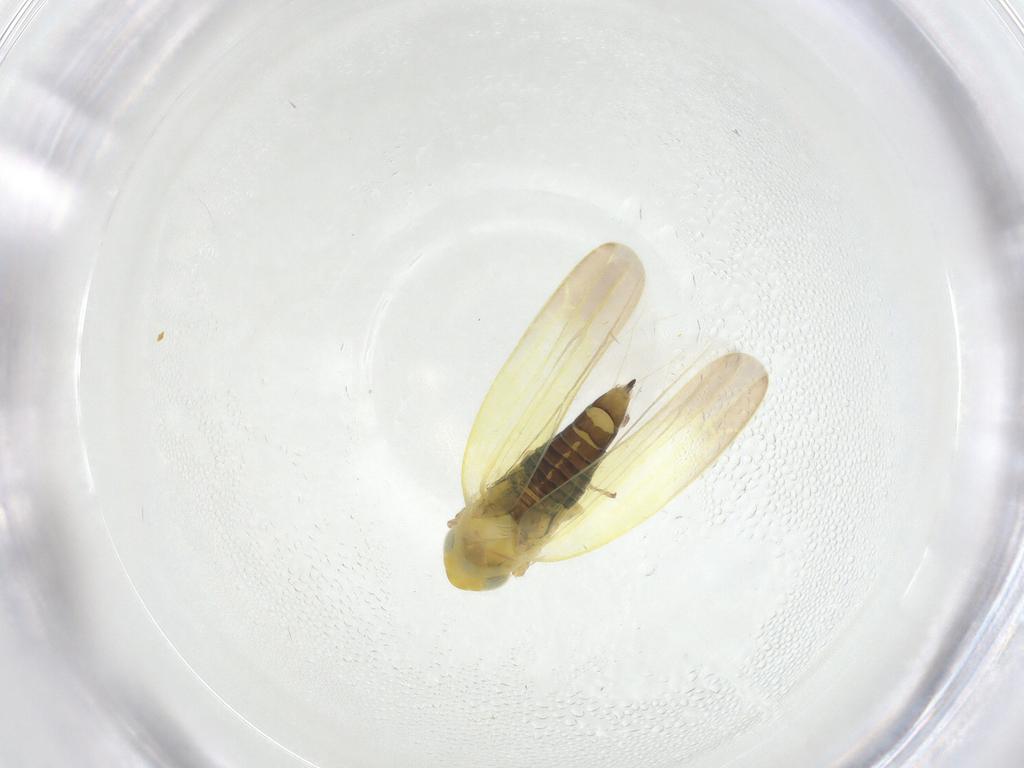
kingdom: Animalia
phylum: Arthropoda
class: Insecta
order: Hemiptera
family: Cicadellidae
